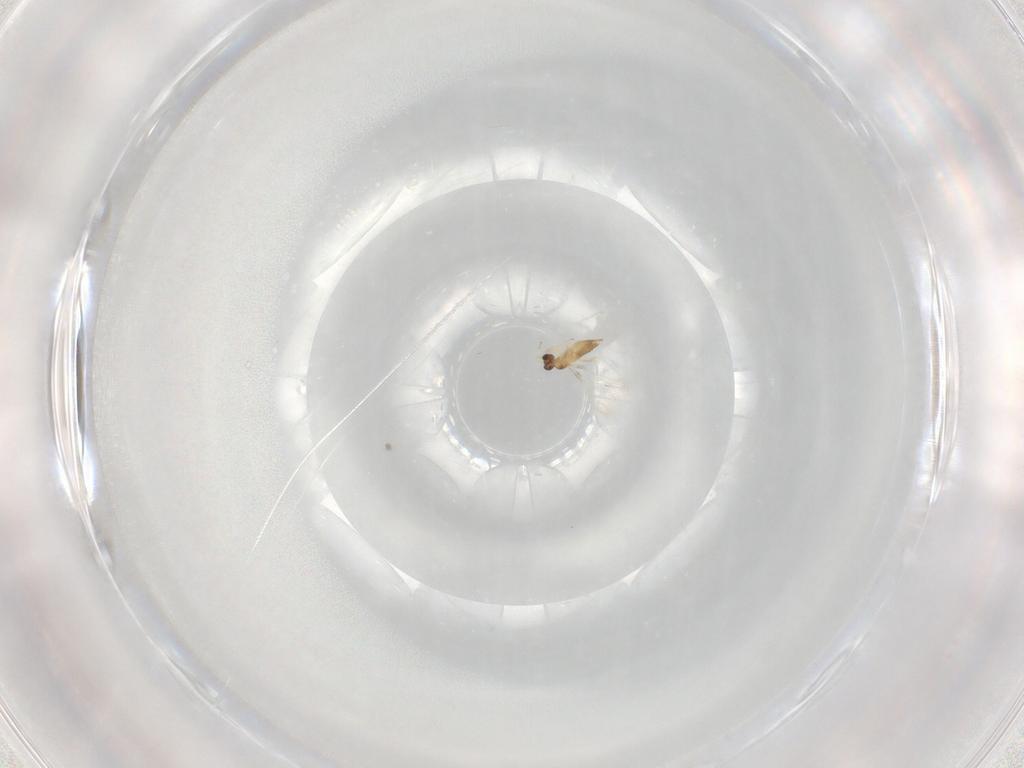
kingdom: Animalia
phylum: Arthropoda
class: Insecta
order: Hymenoptera
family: Mymaridae
